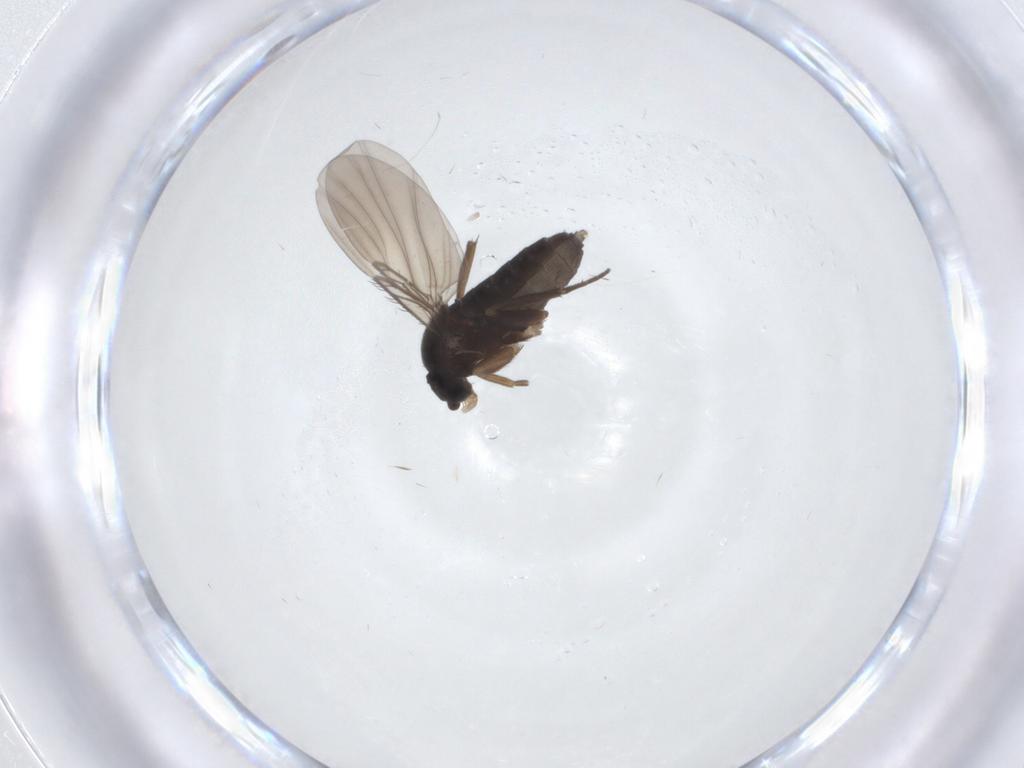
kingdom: Animalia
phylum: Arthropoda
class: Insecta
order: Diptera
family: Phoridae
